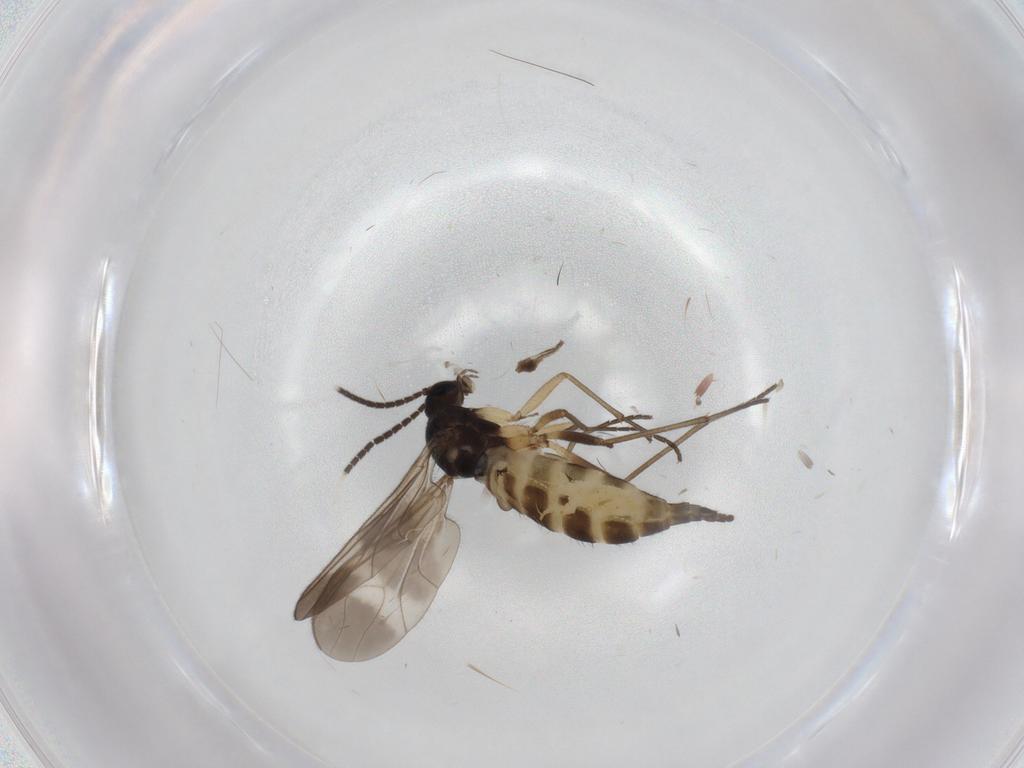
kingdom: Animalia
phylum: Arthropoda
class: Insecta
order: Diptera
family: Sciaridae
